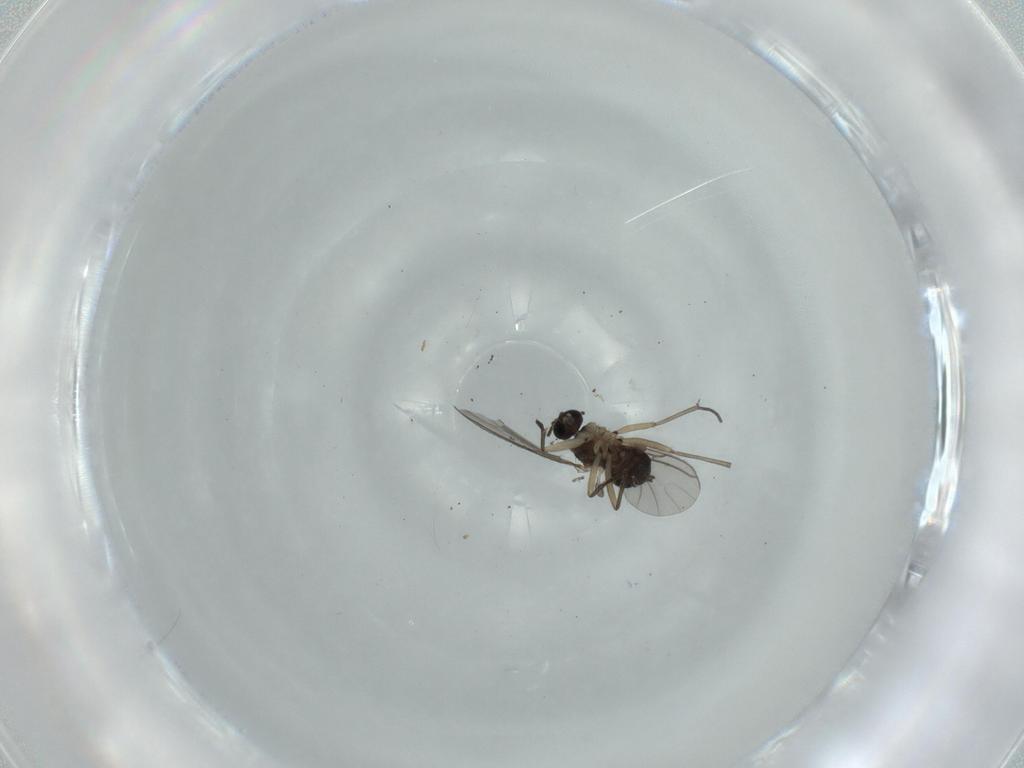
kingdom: Animalia
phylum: Arthropoda
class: Insecta
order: Diptera
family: Sciaridae
